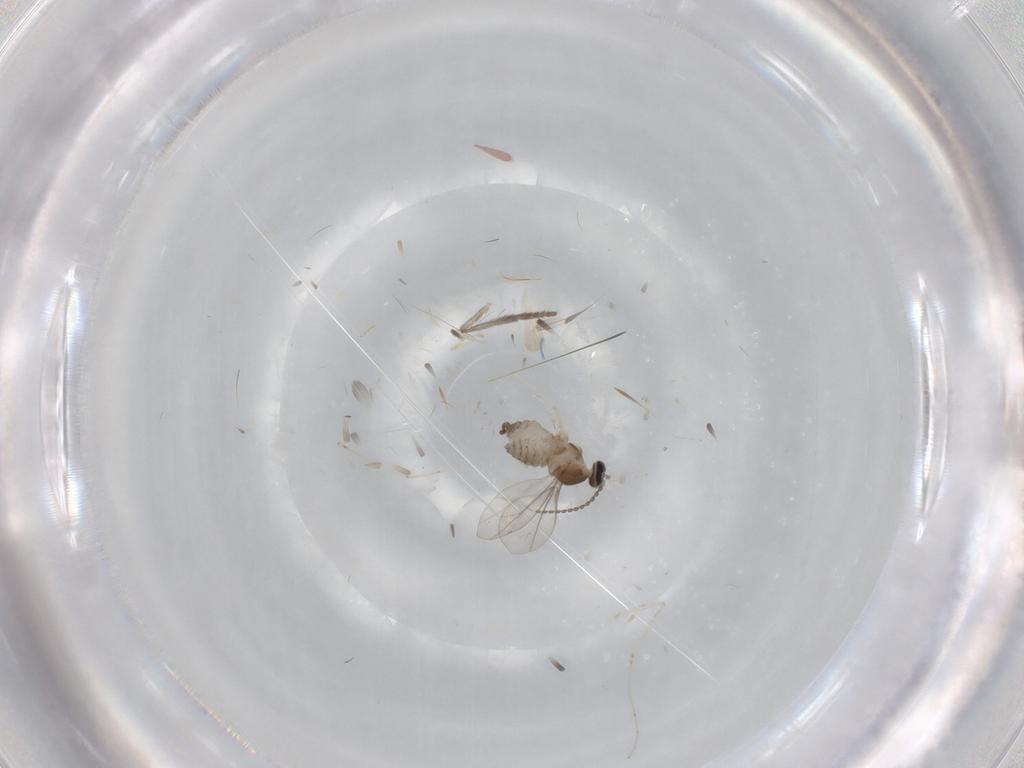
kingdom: Animalia
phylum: Arthropoda
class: Insecta
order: Diptera
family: Cecidomyiidae
